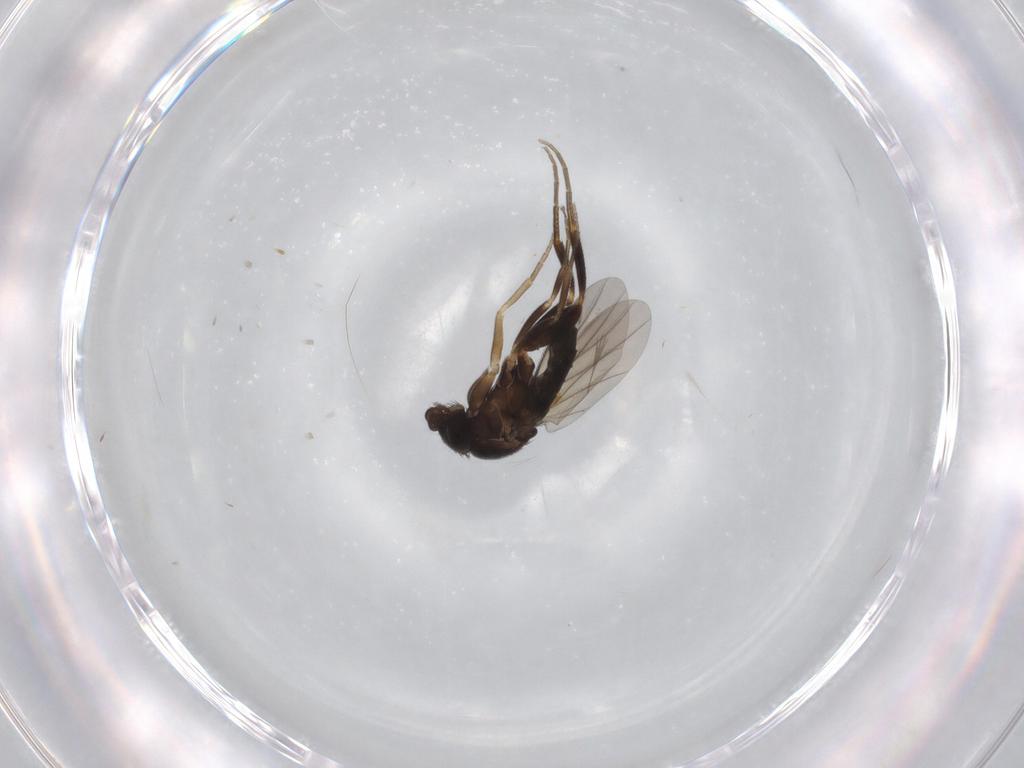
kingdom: Animalia
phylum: Arthropoda
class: Insecta
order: Diptera
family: Phoridae
